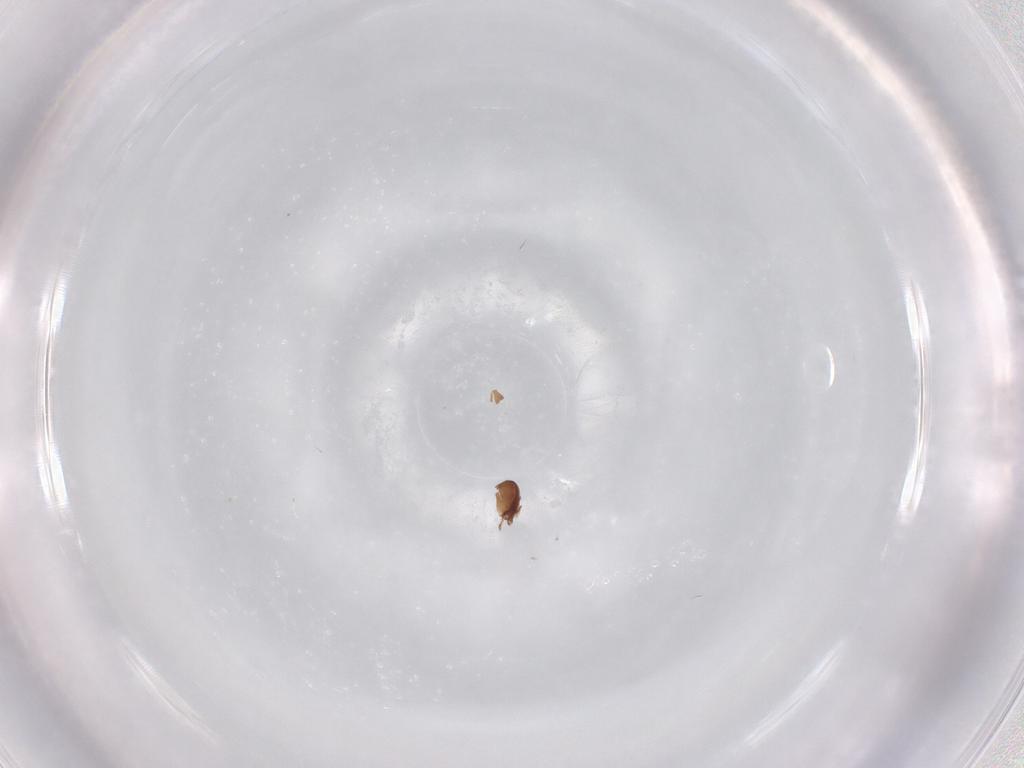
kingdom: Animalia
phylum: Arthropoda
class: Arachnida
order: Sarcoptiformes
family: Ceratozetidae
